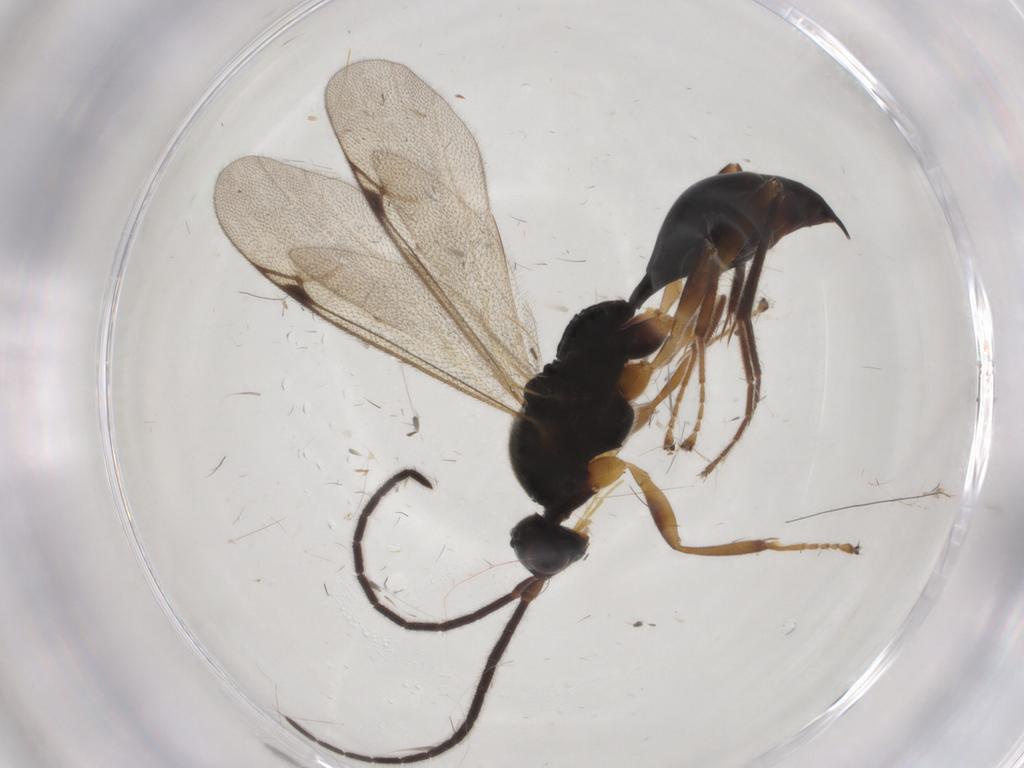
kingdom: Animalia
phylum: Arthropoda
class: Insecta
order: Hymenoptera
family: Proctotrupidae
